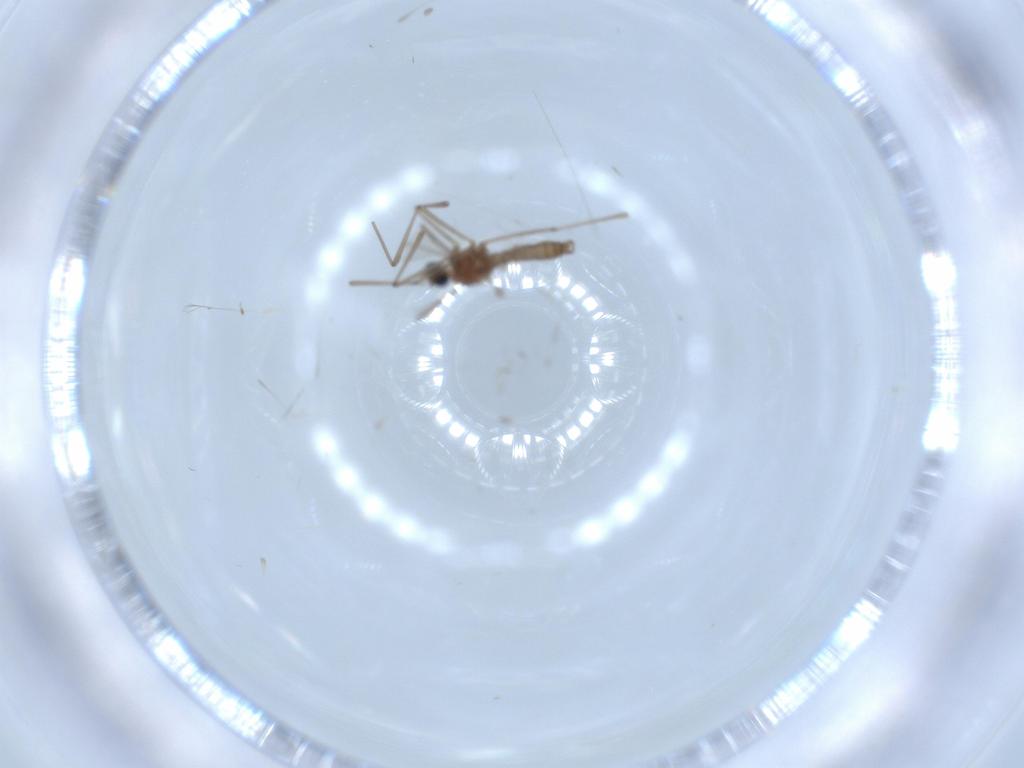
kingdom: Animalia
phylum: Arthropoda
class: Insecta
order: Diptera
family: Cecidomyiidae
